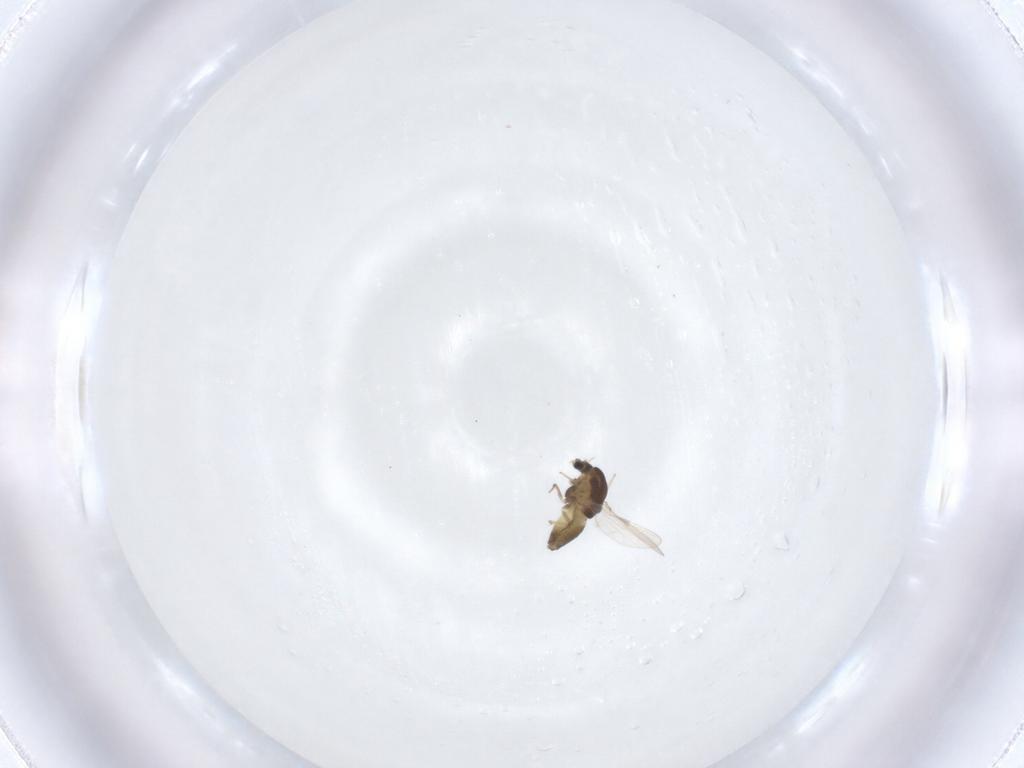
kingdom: Animalia
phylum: Arthropoda
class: Insecta
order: Diptera
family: Chironomidae
